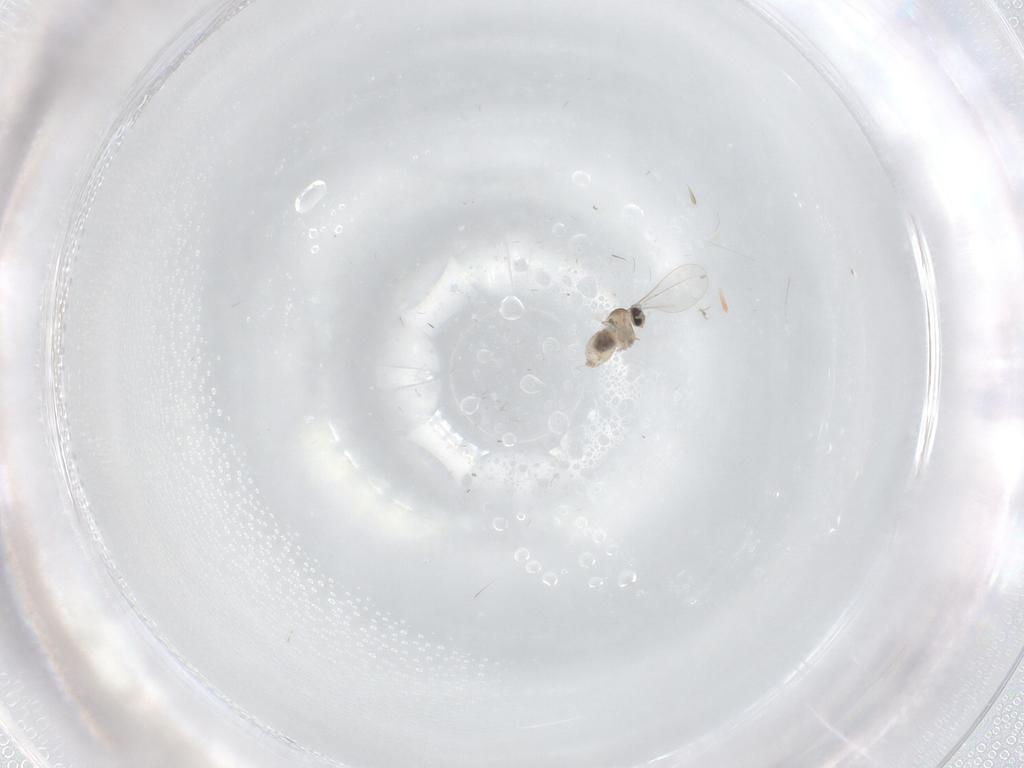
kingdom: Animalia
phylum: Arthropoda
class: Insecta
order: Diptera
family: Cecidomyiidae
